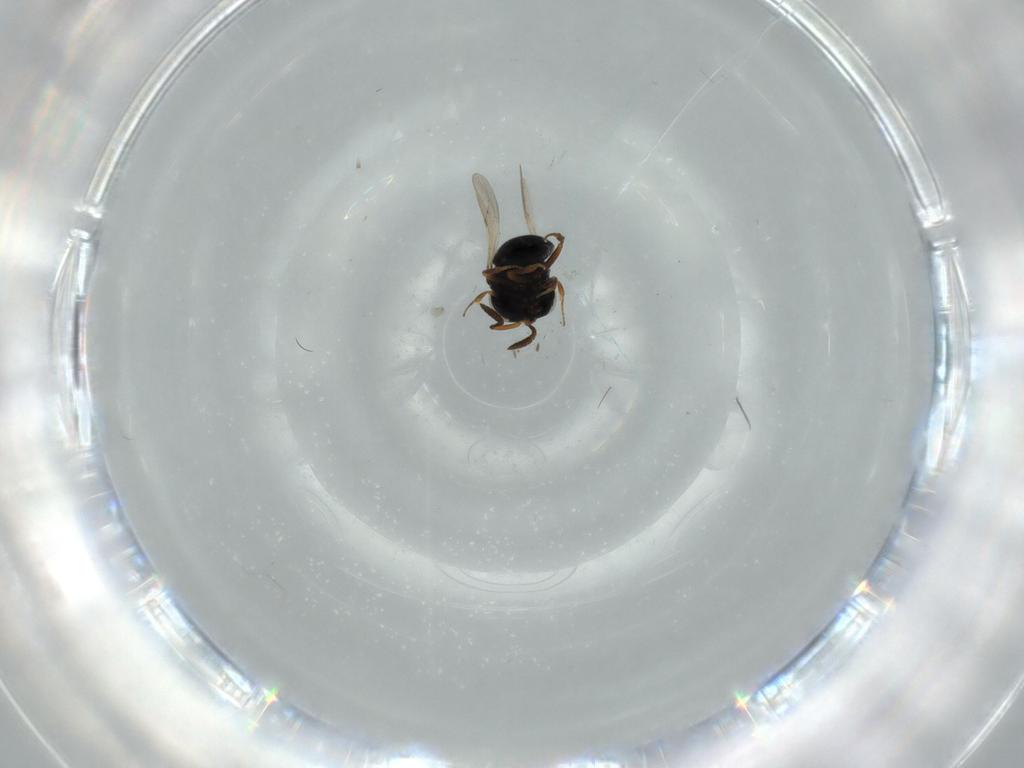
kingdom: Animalia
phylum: Arthropoda
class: Insecta
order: Hymenoptera
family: Scelionidae
